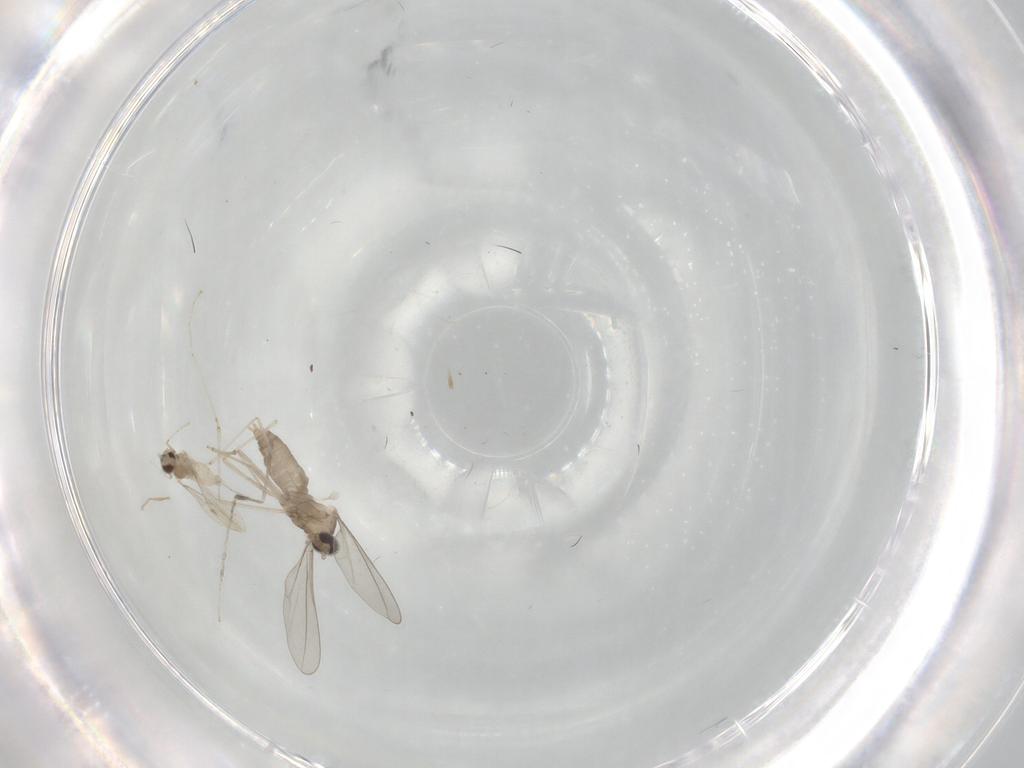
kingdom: Animalia
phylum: Arthropoda
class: Insecta
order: Diptera
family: Cecidomyiidae
